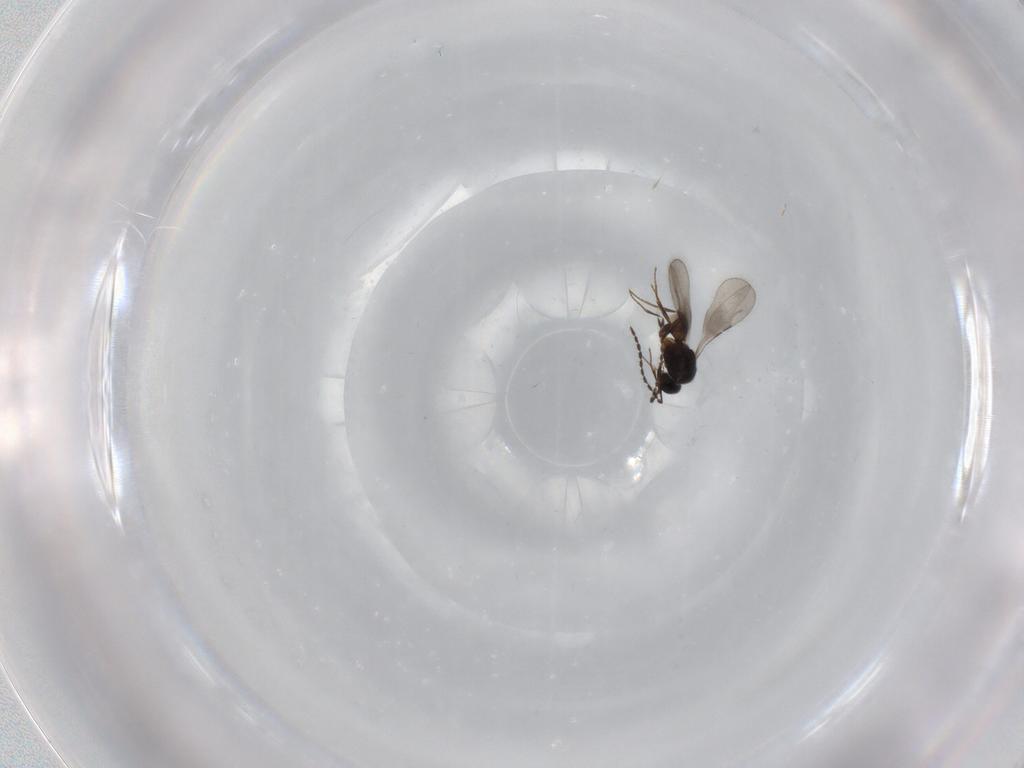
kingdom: Animalia
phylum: Arthropoda
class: Insecta
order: Hymenoptera
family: Ceraphronidae
